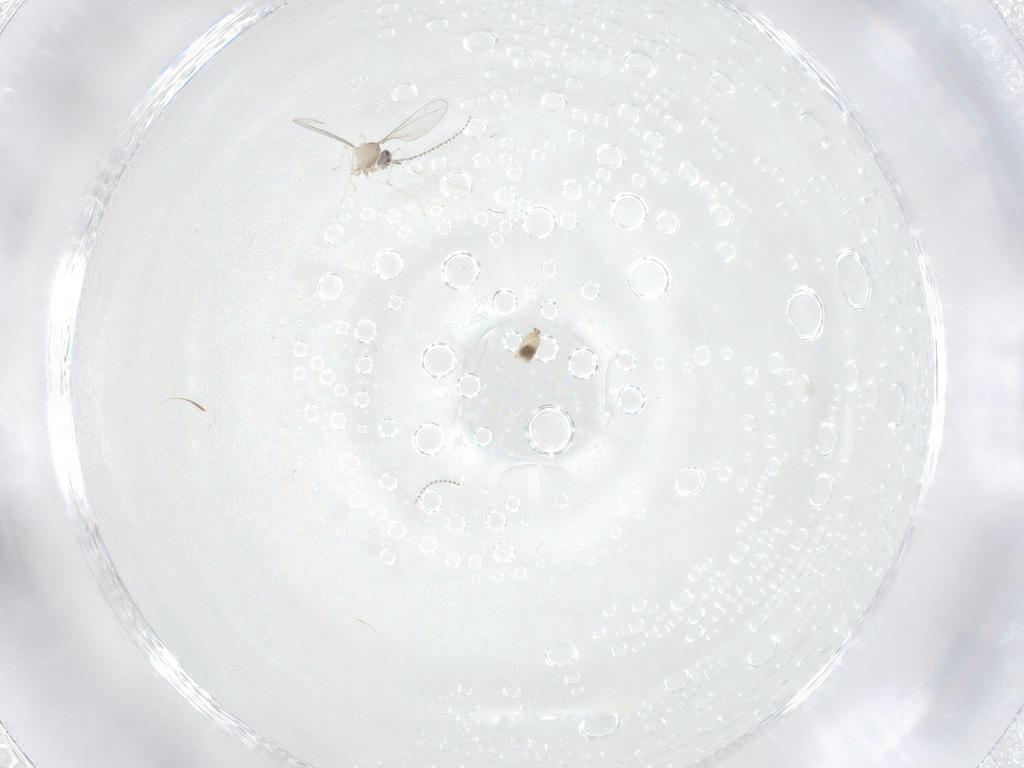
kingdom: Animalia
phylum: Arthropoda
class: Insecta
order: Diptera
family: Cecidomyiidae
